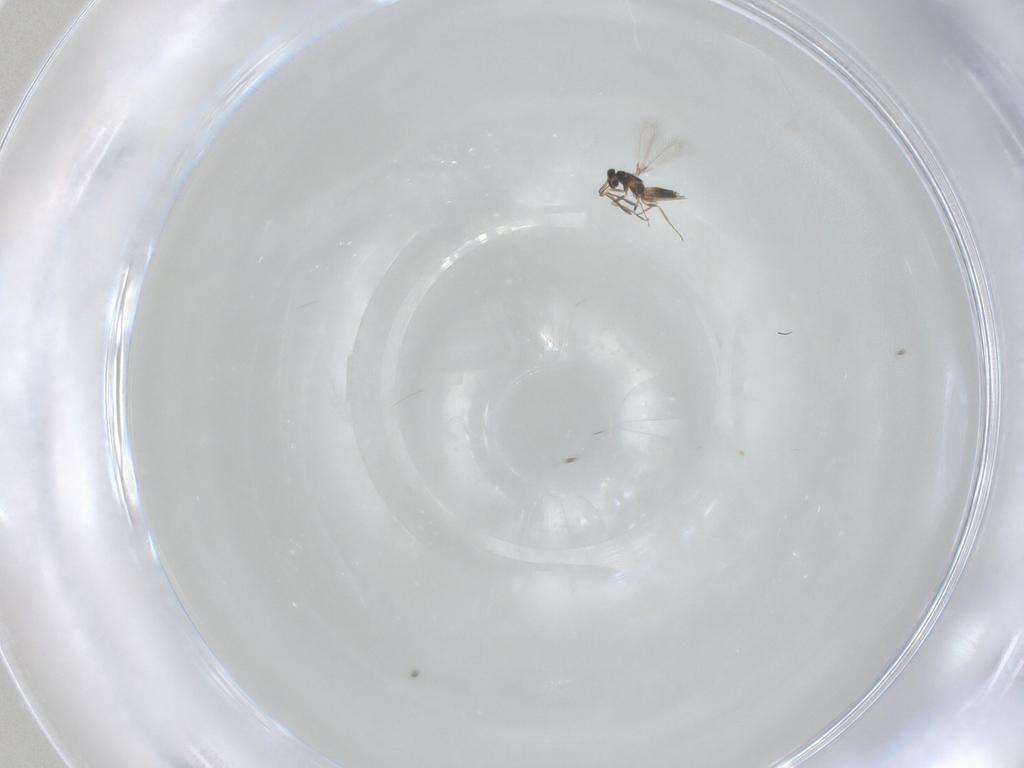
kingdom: Animalia
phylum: Arthropoda
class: Insecta
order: Hymenoptera
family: Mymaridae
